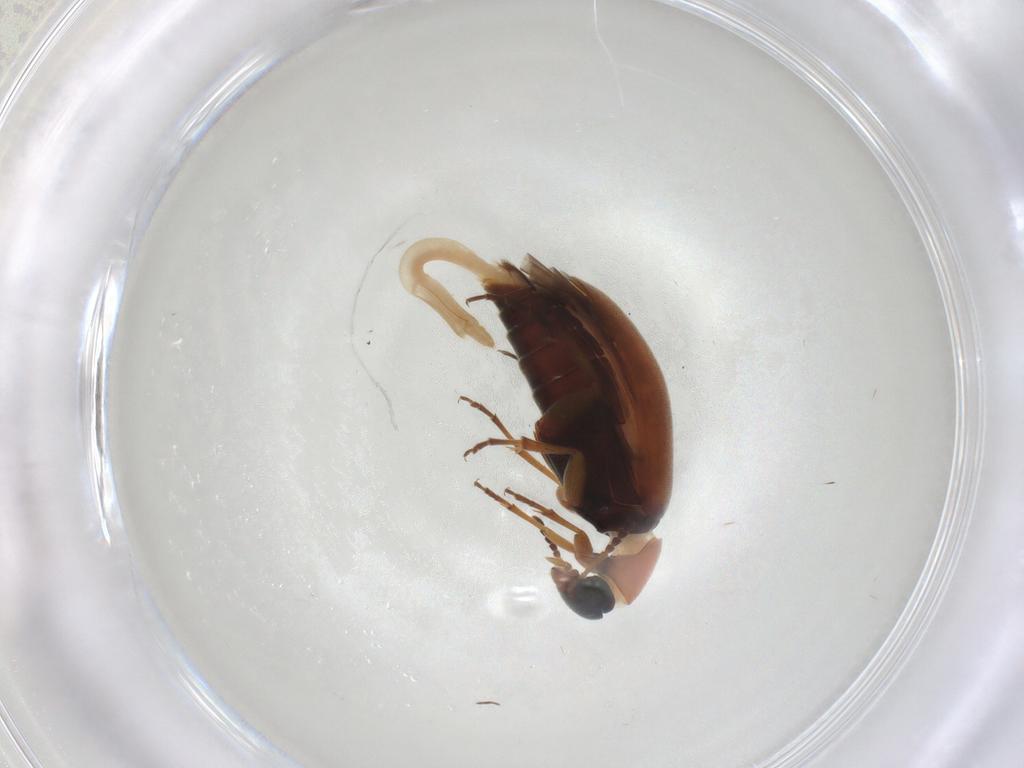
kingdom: Animalia
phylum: Arthropoda
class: Insecta
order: Coleoptera
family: Scraptiidae
